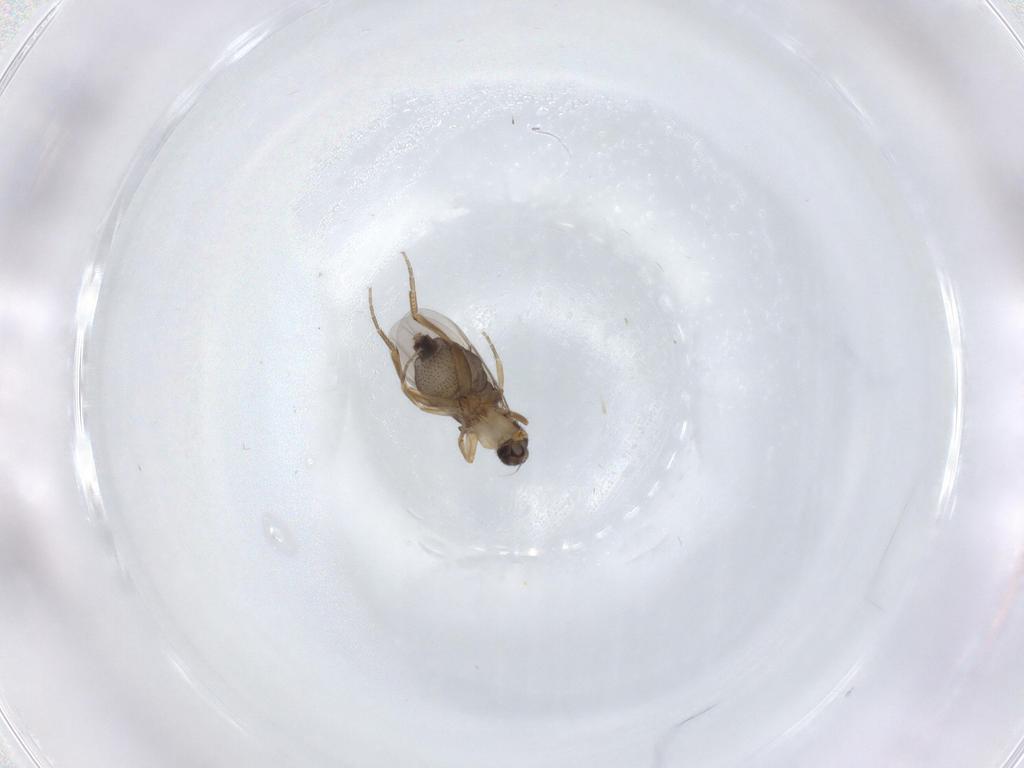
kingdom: Animalia
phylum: Arthropoda
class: Insecta
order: Diptera
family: Phoridae
